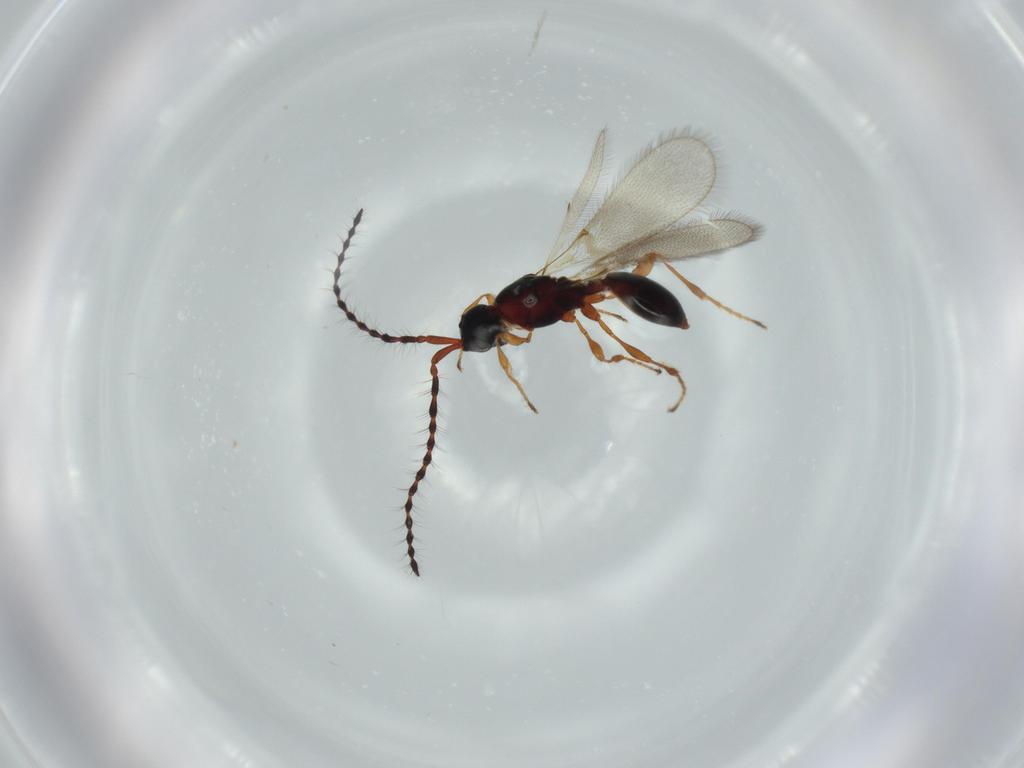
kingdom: Animalia
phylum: Arthropoda
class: Insecta
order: Hymenoptera
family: Diapriidae
